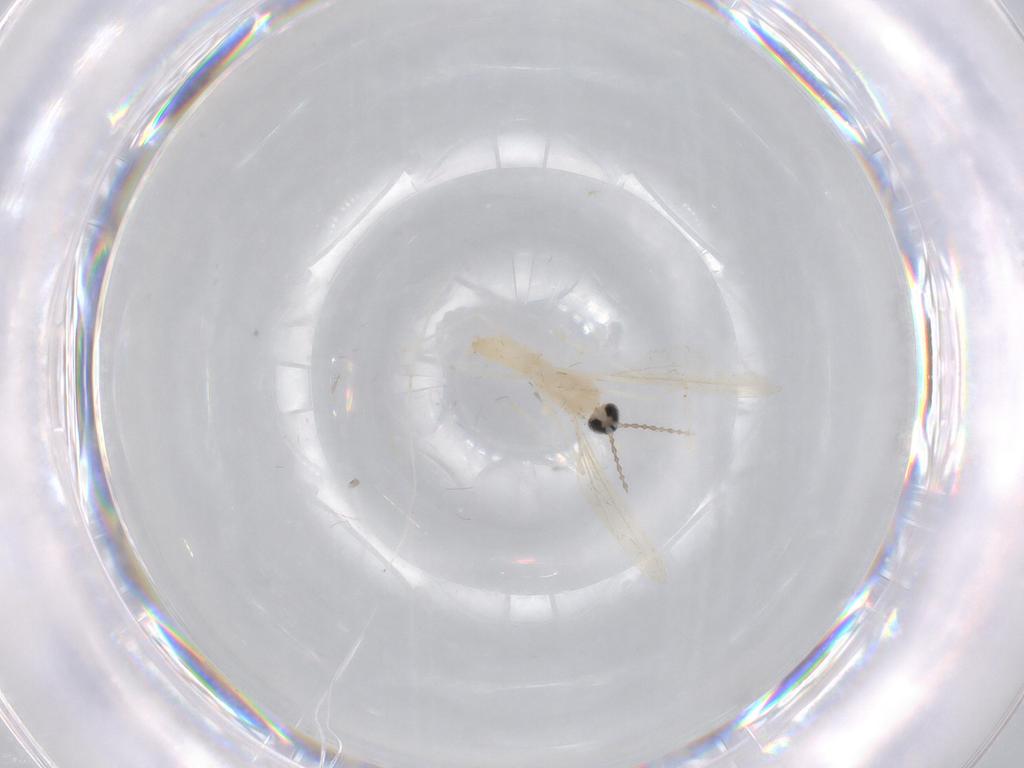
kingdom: Animalia
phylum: Arthropoda
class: Insecta
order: Diptera
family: Cecidomyiidae
